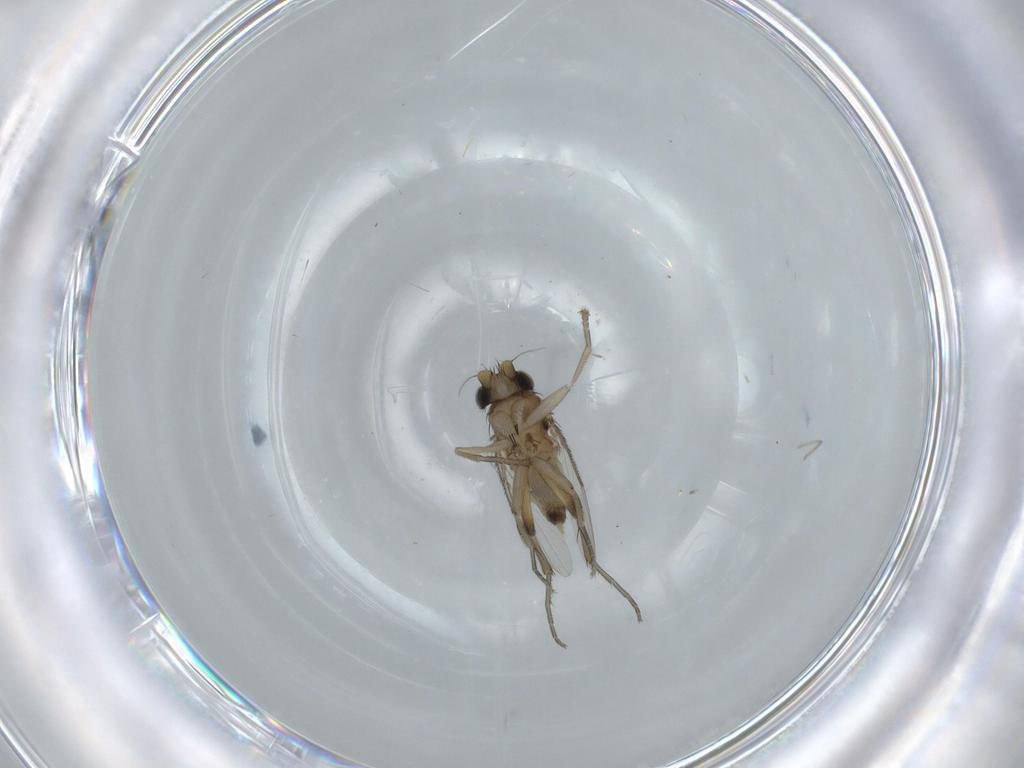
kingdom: Animalia
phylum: Arthropoda
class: Insecta
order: Diptera
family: Phoridae
